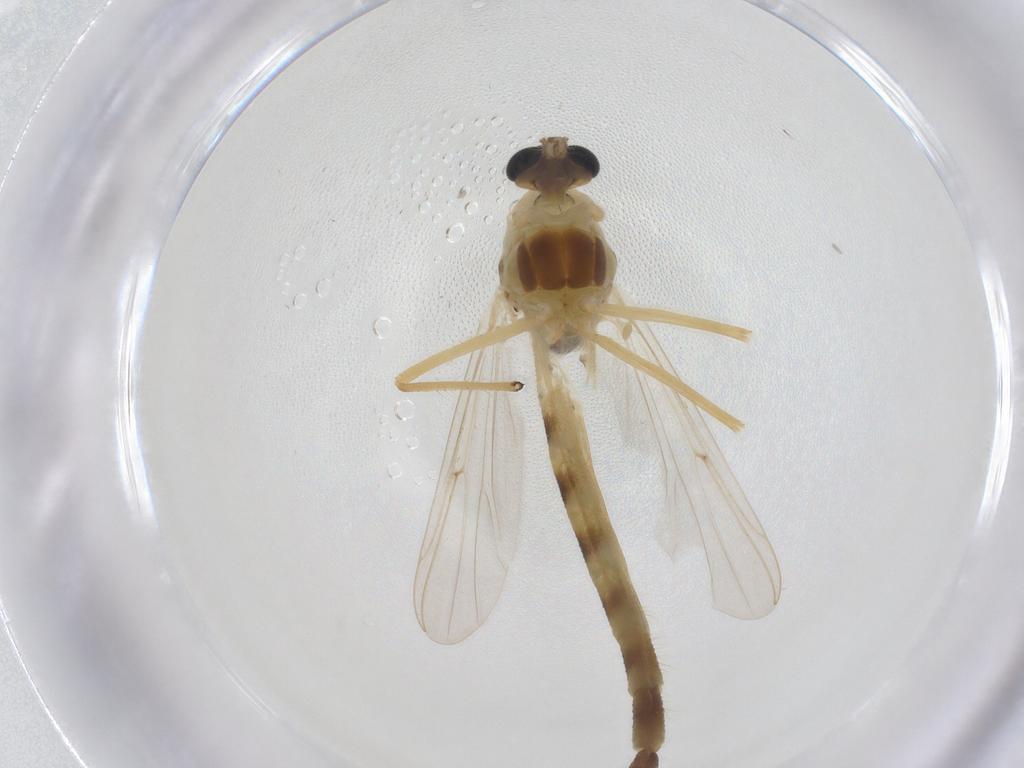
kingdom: Animalia
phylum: Arthropoda
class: Insecta
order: Diptera
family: Chironomidae
